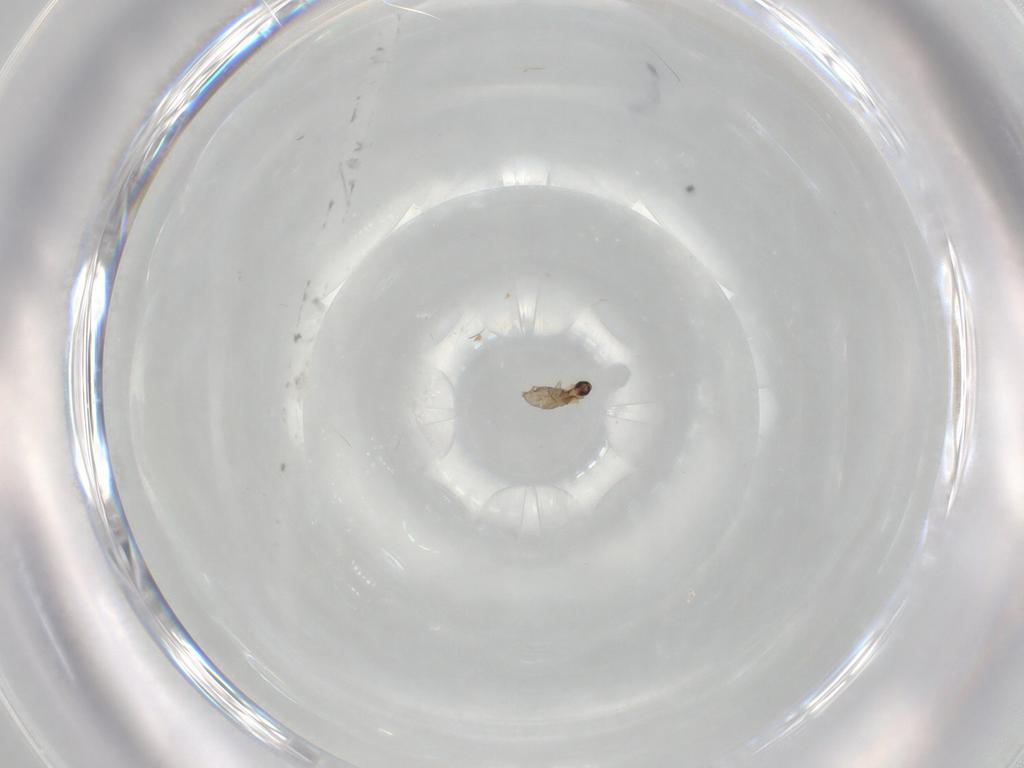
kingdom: Animalia
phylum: Arthropoda
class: Insecta
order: Diptera
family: Cecidomyiidae
